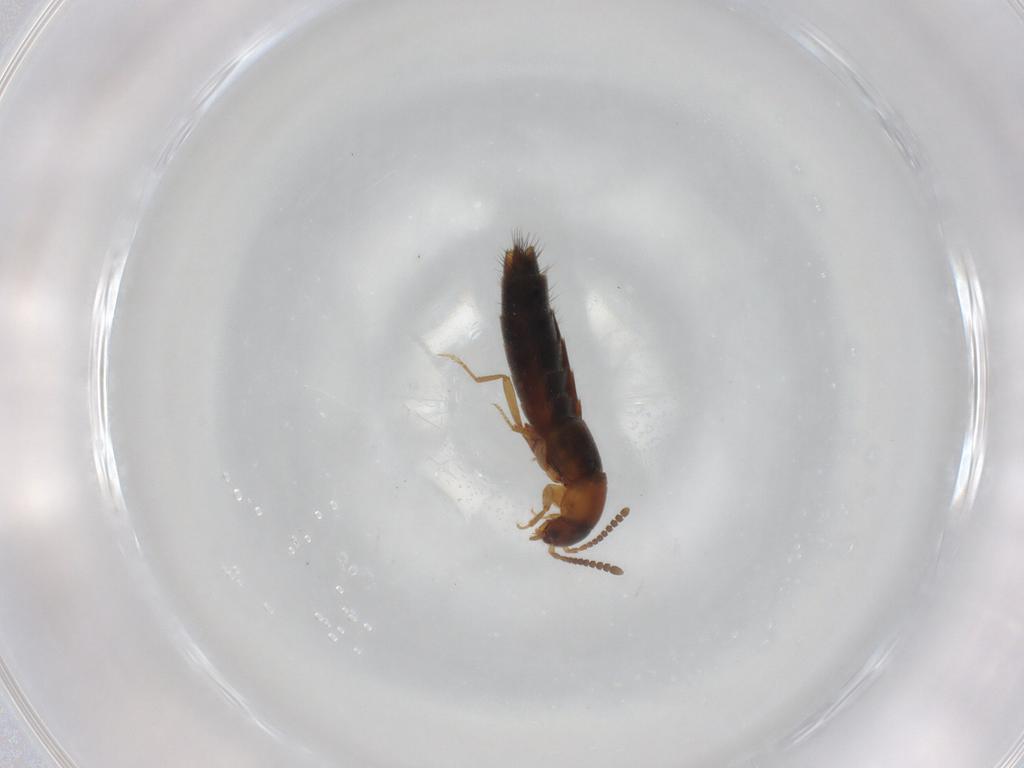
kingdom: Animalia
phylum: Arthropoda
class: Insecta
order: Coleoptera
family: Staphylinidae
